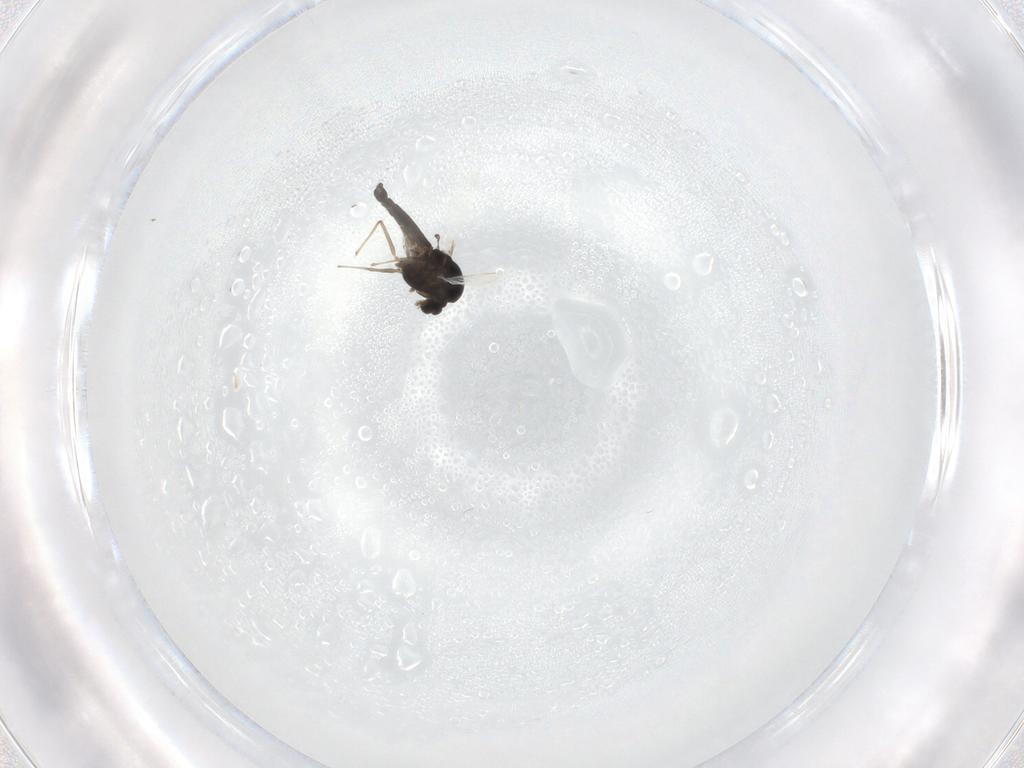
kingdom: Animalia
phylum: Arthropoda
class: Insecta
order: Diptera
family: Chironomidae
